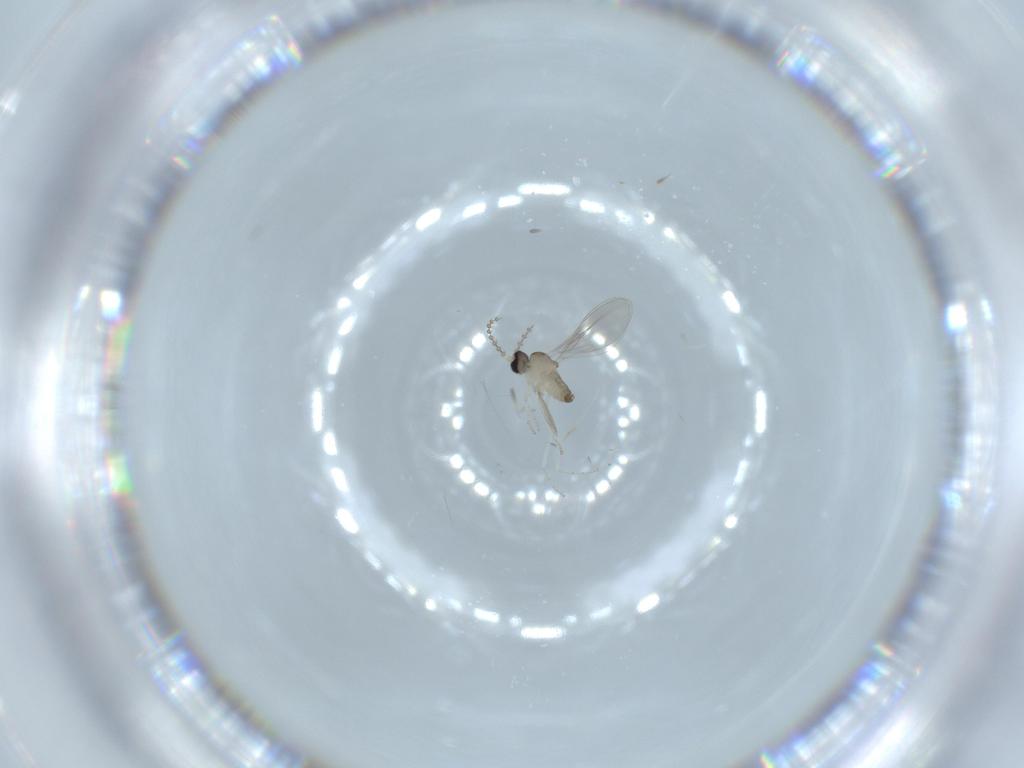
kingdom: Animalia
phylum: Arthropoda
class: Insecta
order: Diptera
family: Cecidomyiidae
